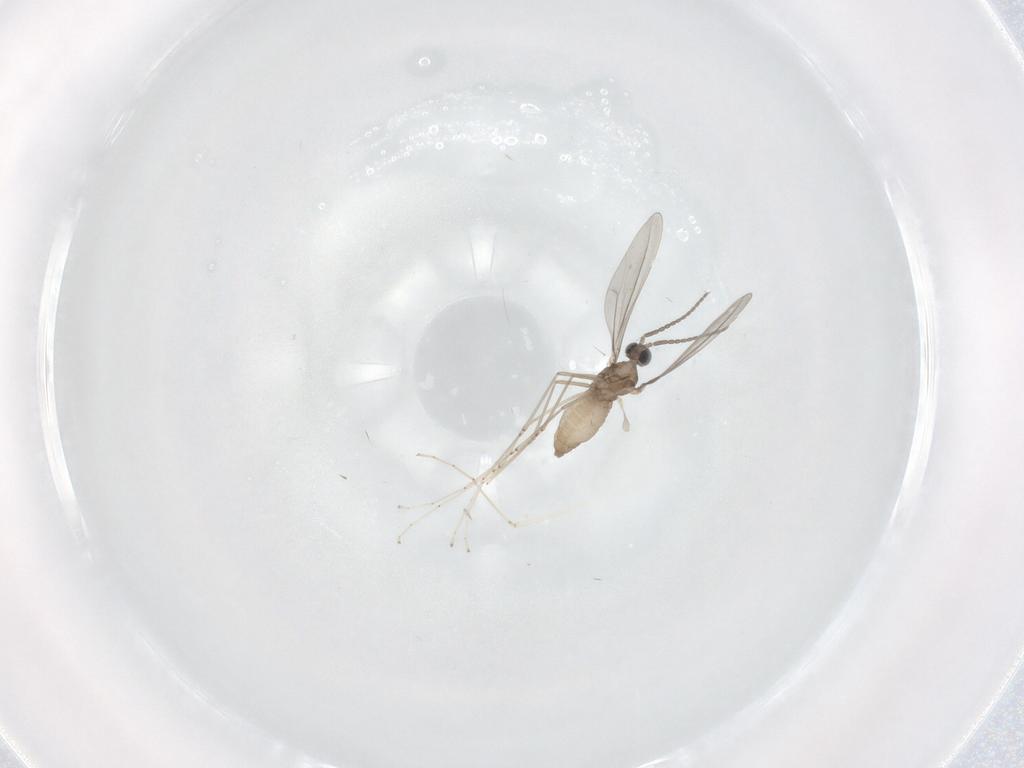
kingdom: Animalia
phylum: Arthropoda
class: Insecta
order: Diptera
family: Cecidomyiidae
